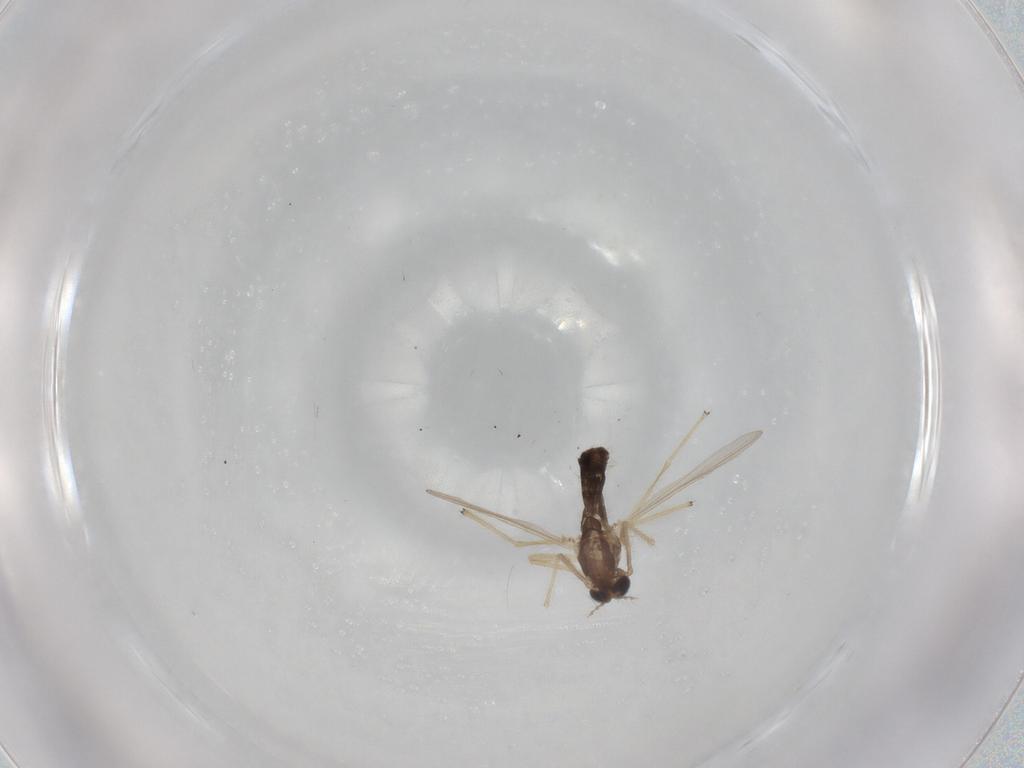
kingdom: Animalia
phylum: Arthropoda
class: Insecta
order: Diptera
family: Chironomidae
